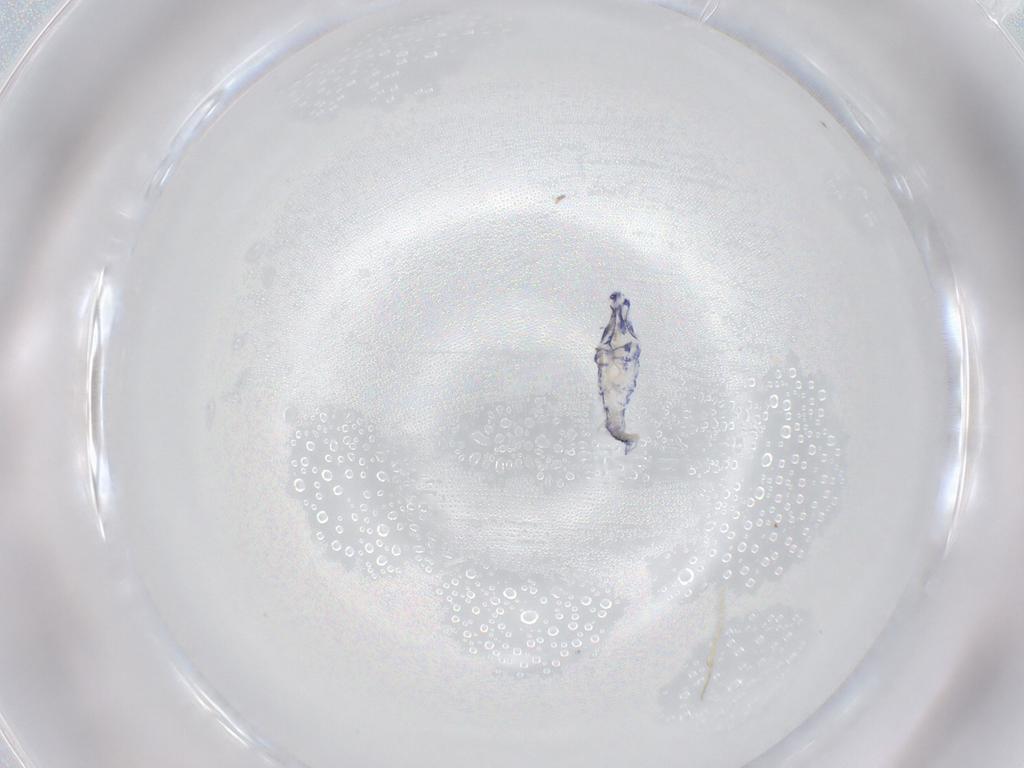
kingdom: Animalia
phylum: Arthropoda
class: Collembola
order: Entomobryomorpha
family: Entomobryidae
